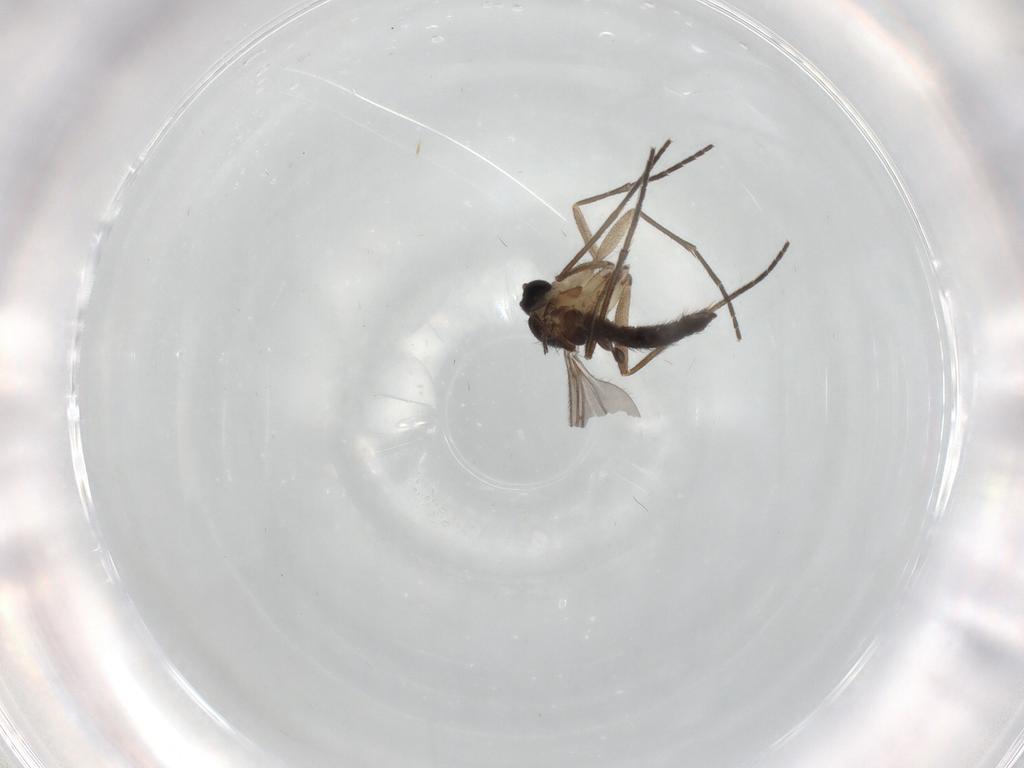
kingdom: Animalia
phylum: Arthropoda
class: Insecta
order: Diptera
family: Sciaridae
